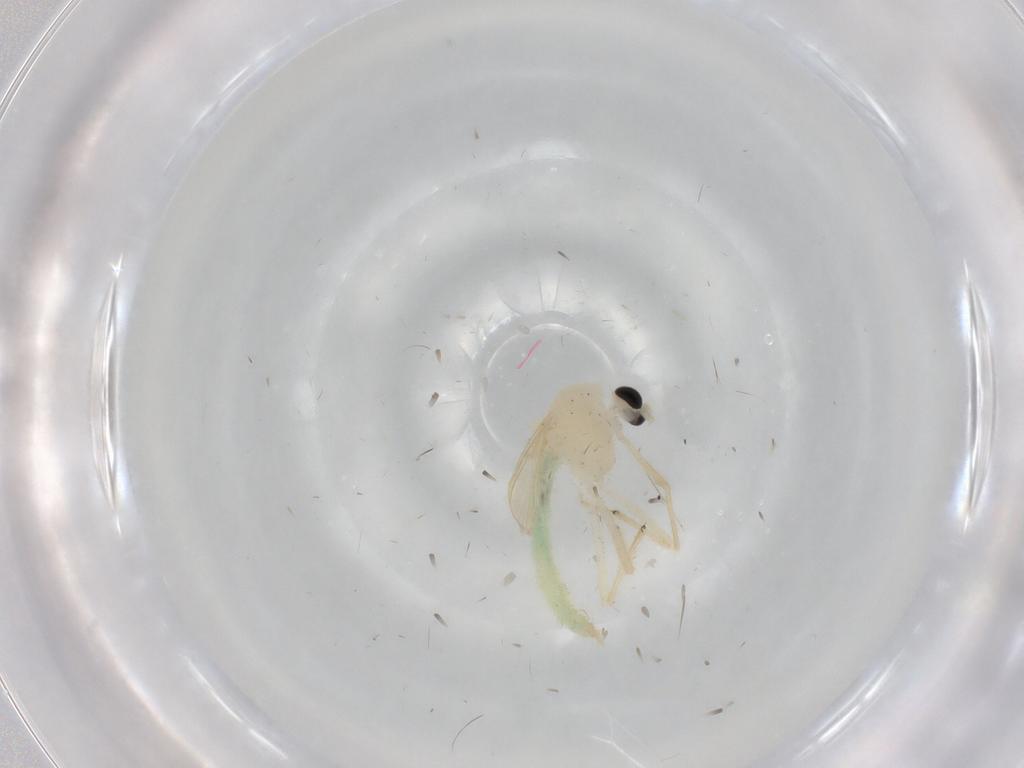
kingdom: Animalia
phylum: Arthropoda
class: Insecta
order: Diptera
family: Chironomidae
